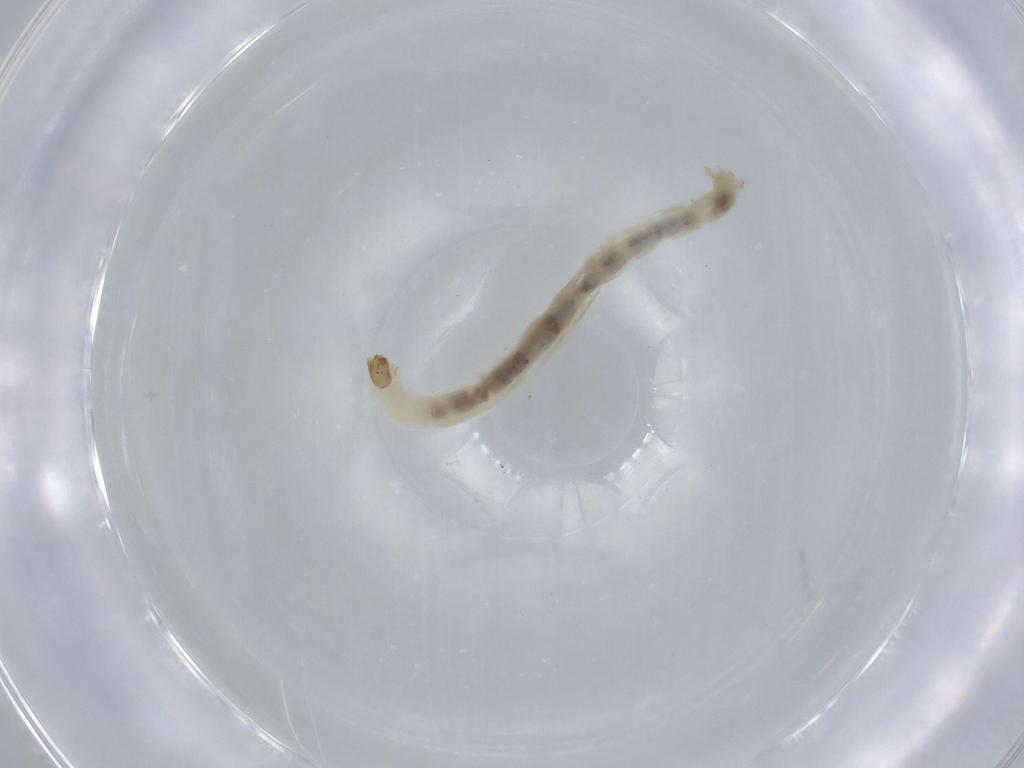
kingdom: Animalia
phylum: Arthropoda
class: Insecta
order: Diptera
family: Chironomidae
